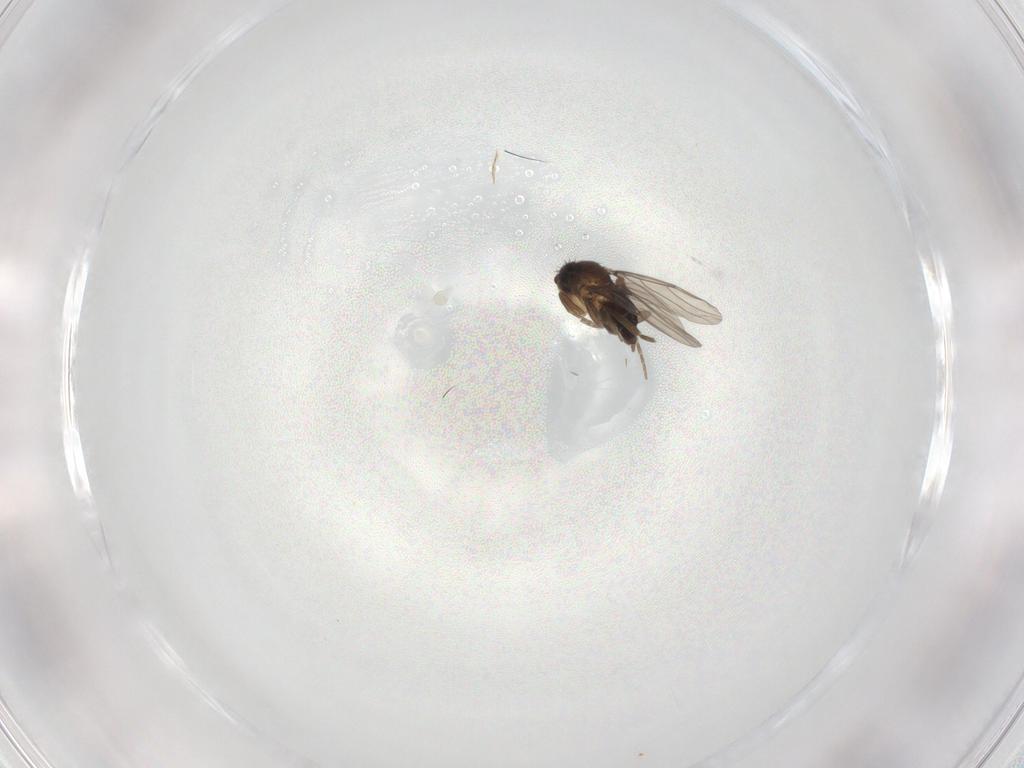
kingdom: Animalia
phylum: Arthropoda
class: Insecta
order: Diptera
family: Phoridae
